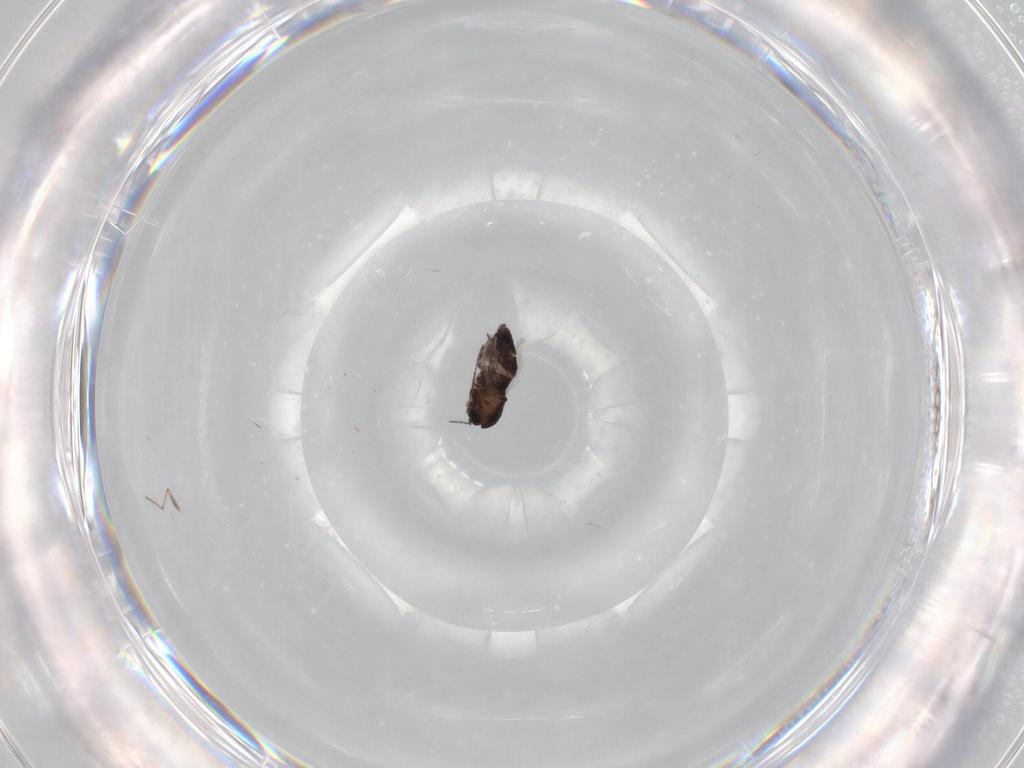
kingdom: Animalia
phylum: Arthropoda
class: Insecta
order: Diptera
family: Chironomidae
